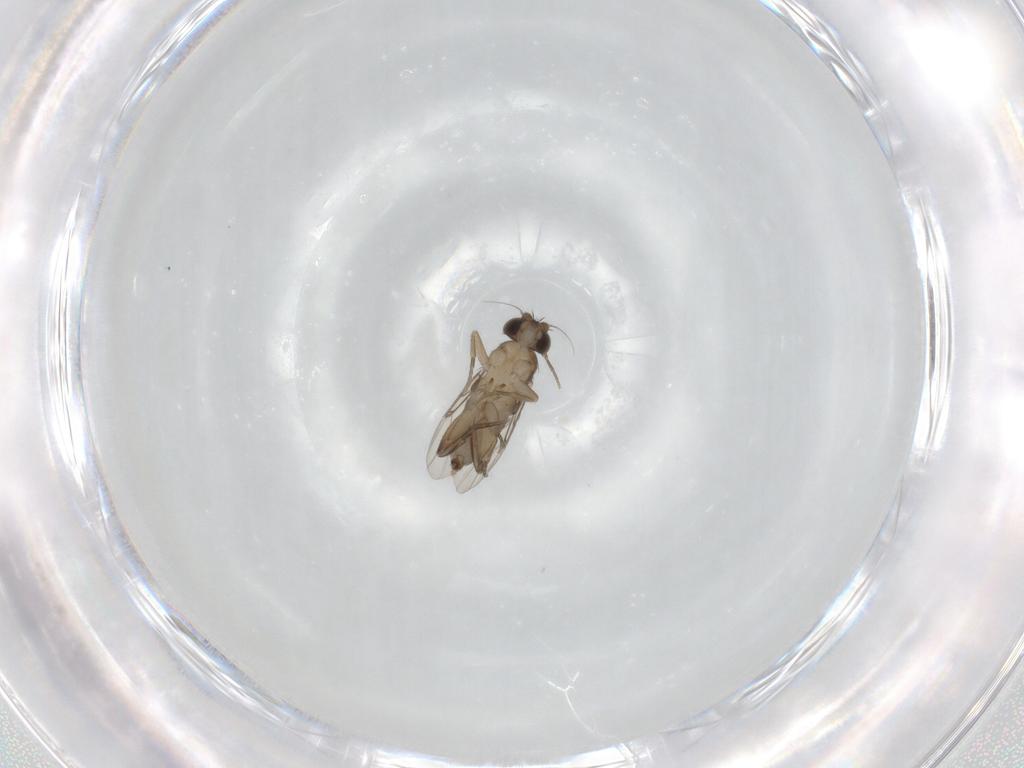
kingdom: Animalia
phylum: Arthropoda
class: Insecta
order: Diptera
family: Phoridae
